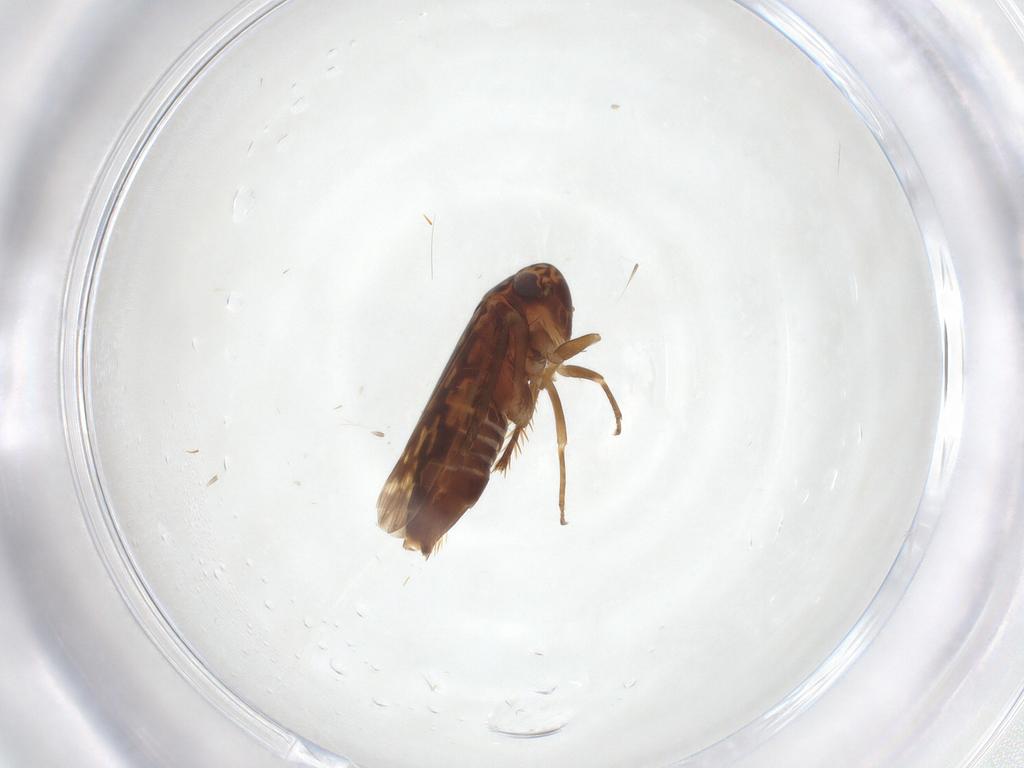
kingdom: Animalia
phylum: Arthropoda
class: Insecta
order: Hemiptera
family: Cicadellidae
